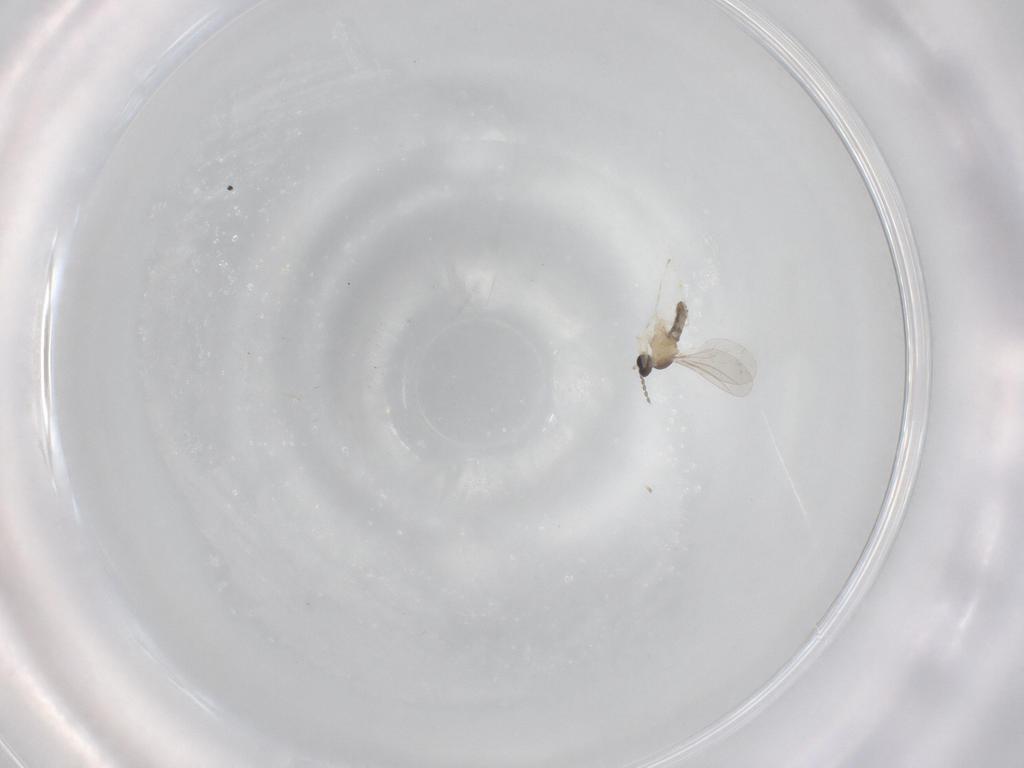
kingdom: Animalia
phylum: Arthropoda
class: Insecta
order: Diptera
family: Cecidomyiidae
